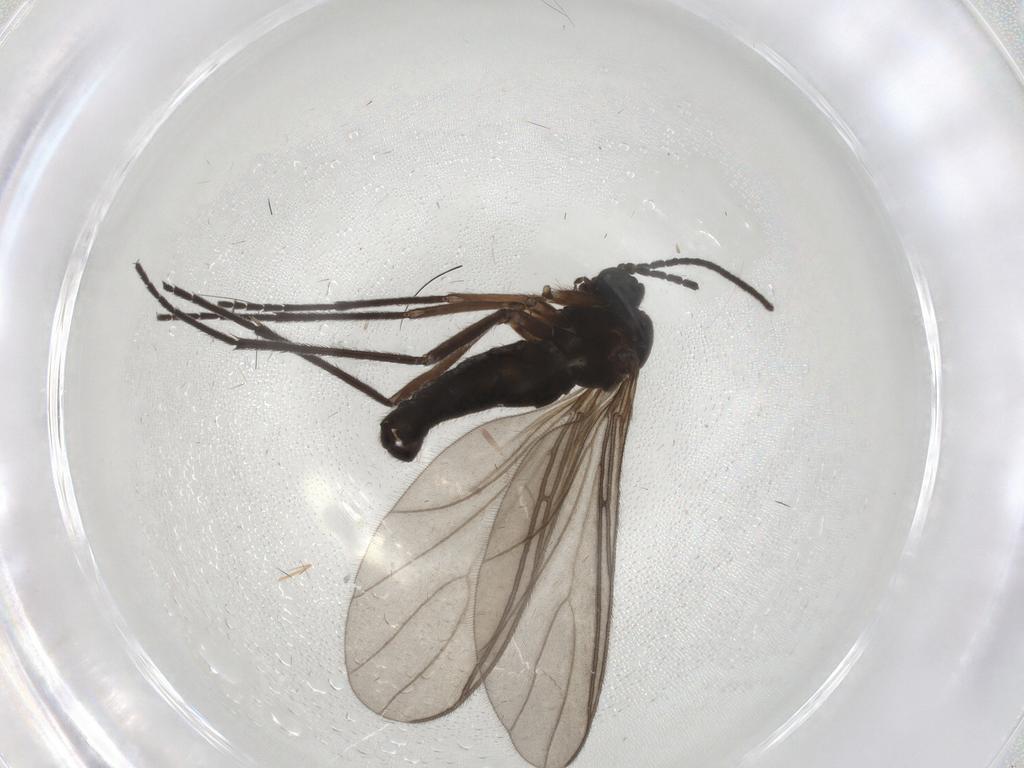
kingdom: Animalia
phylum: Arthropoda
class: Insecta
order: Diptera
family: Sciaridae
